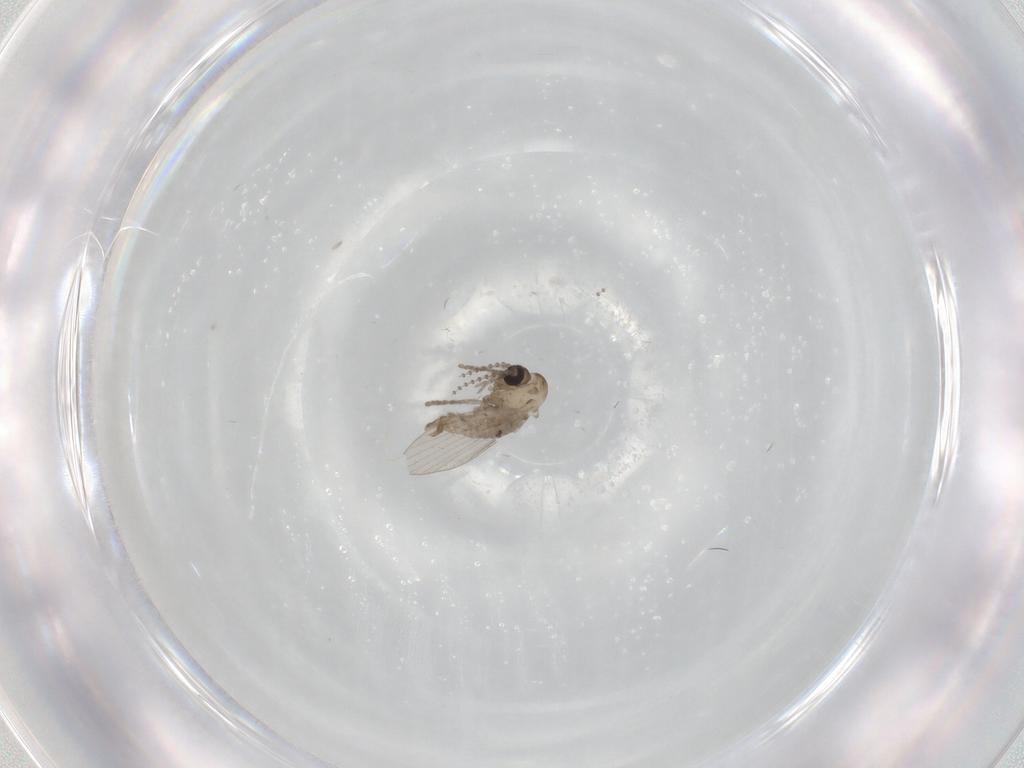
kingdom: Animalia
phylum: Arthropoda
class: Insecta
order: Diptera
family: Psychodidae
